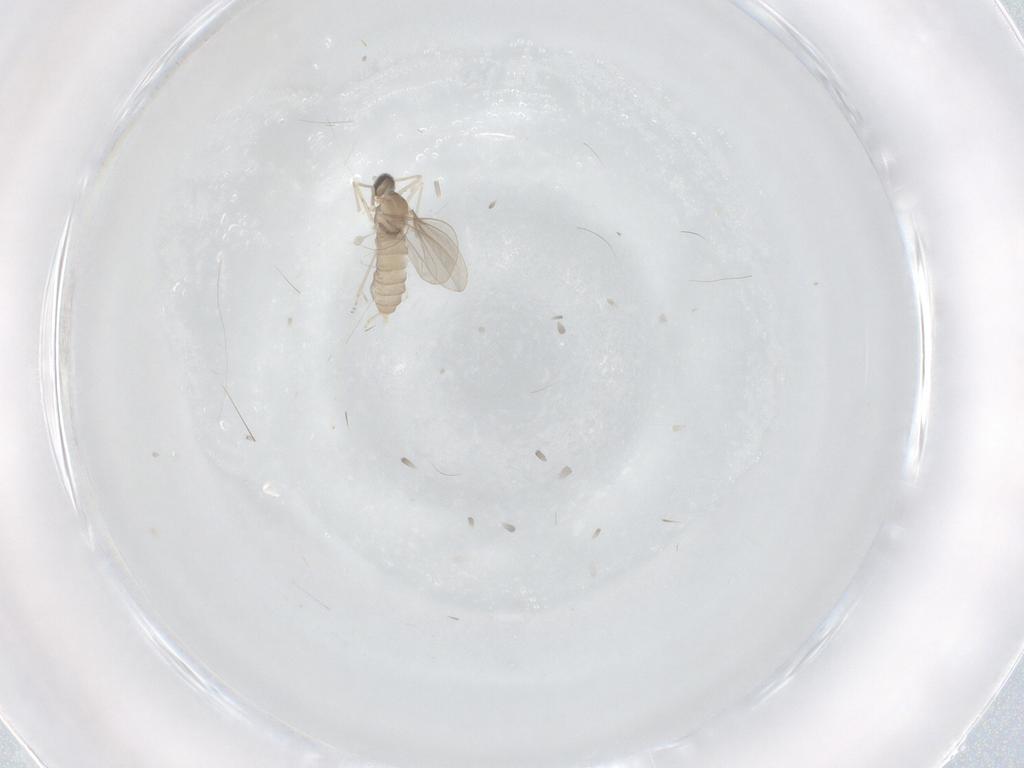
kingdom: Animalia
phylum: Arthropoda
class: Insecta
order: Diptera
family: Cecidomyiidae
